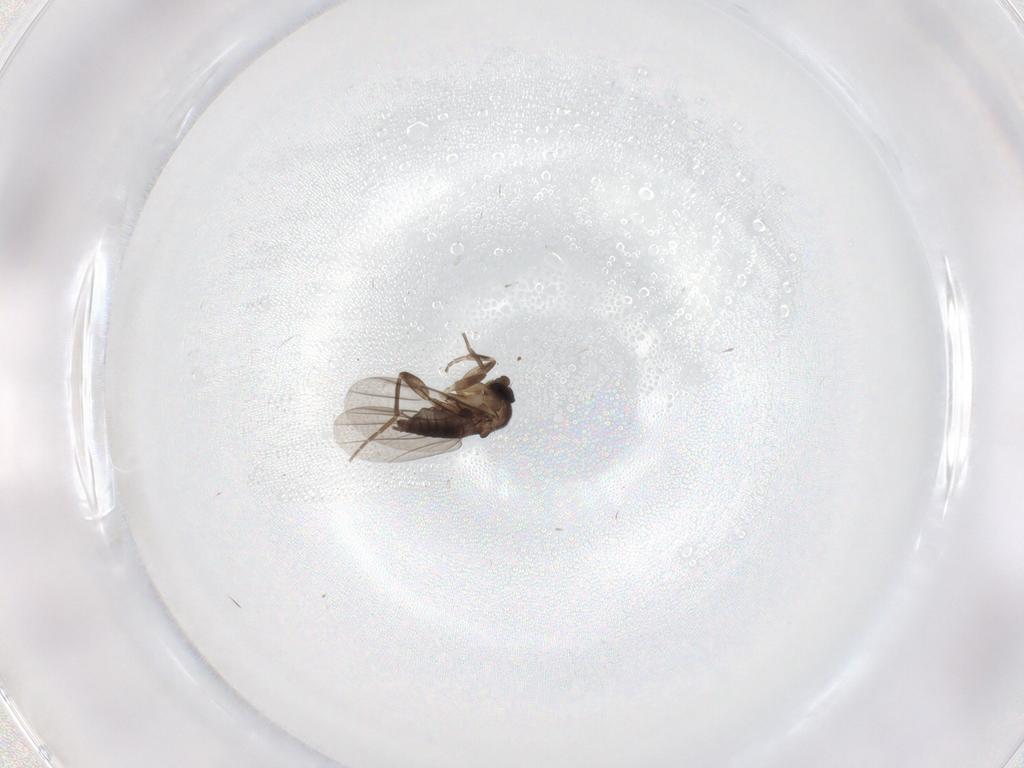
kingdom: Animalia
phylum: Arthropoda
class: Insecta
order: Diptera
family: Phoridae
